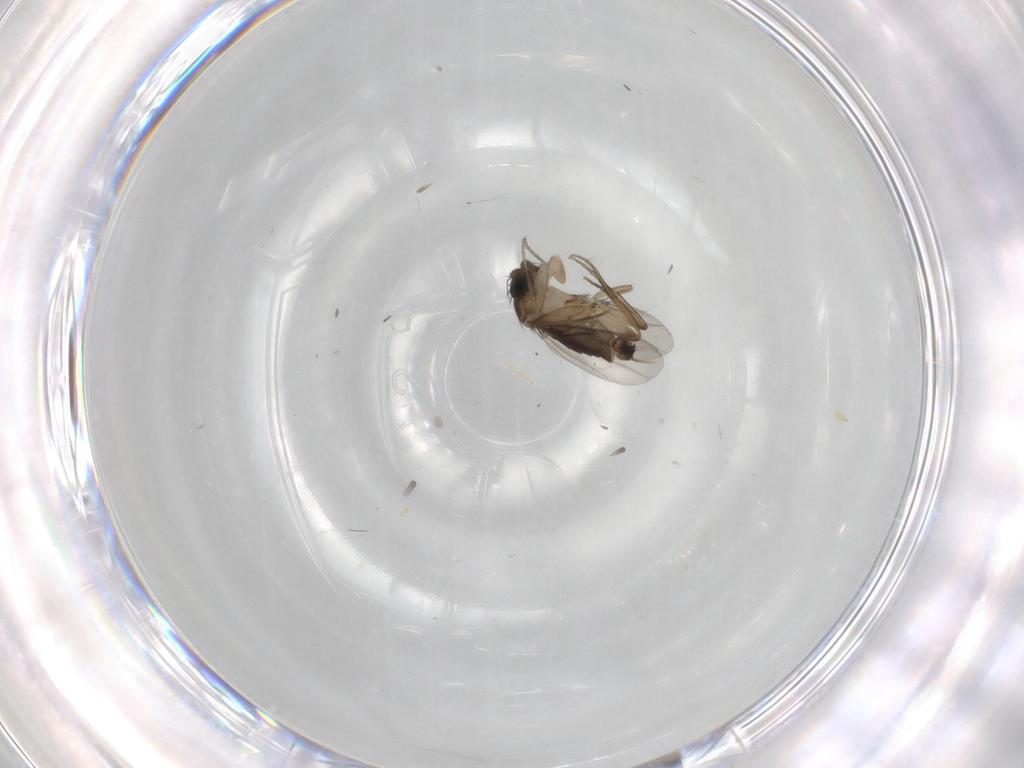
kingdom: Animalia
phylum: Arthropoda
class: Insecta
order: Diptera
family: Phoridae
